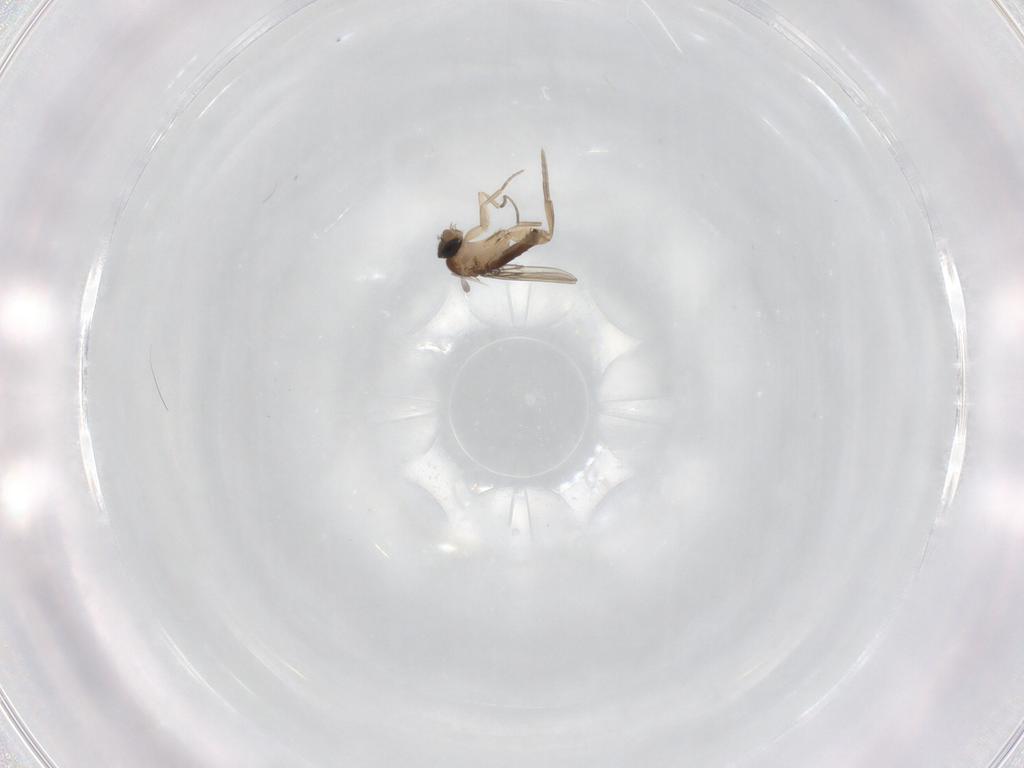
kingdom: Animalia
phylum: Arthropoda
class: Insecta
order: Diptera
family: Phoridae
